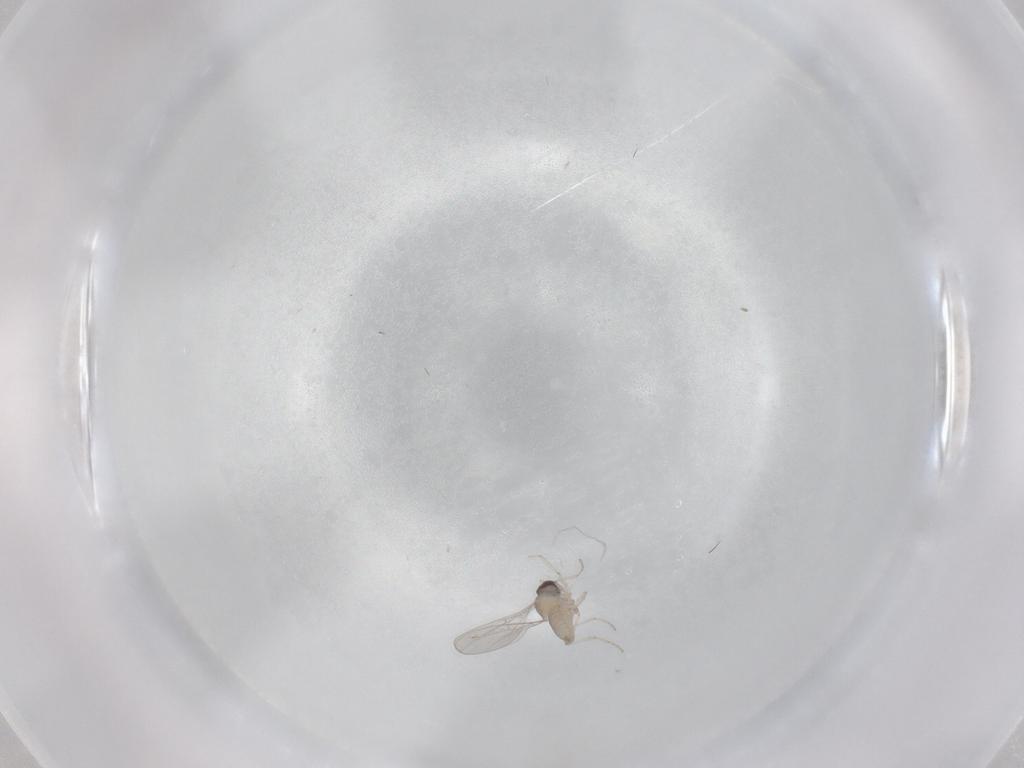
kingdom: Animalia
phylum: Arthropoda
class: Insecta
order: Diptera
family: Cecidomyiidae
